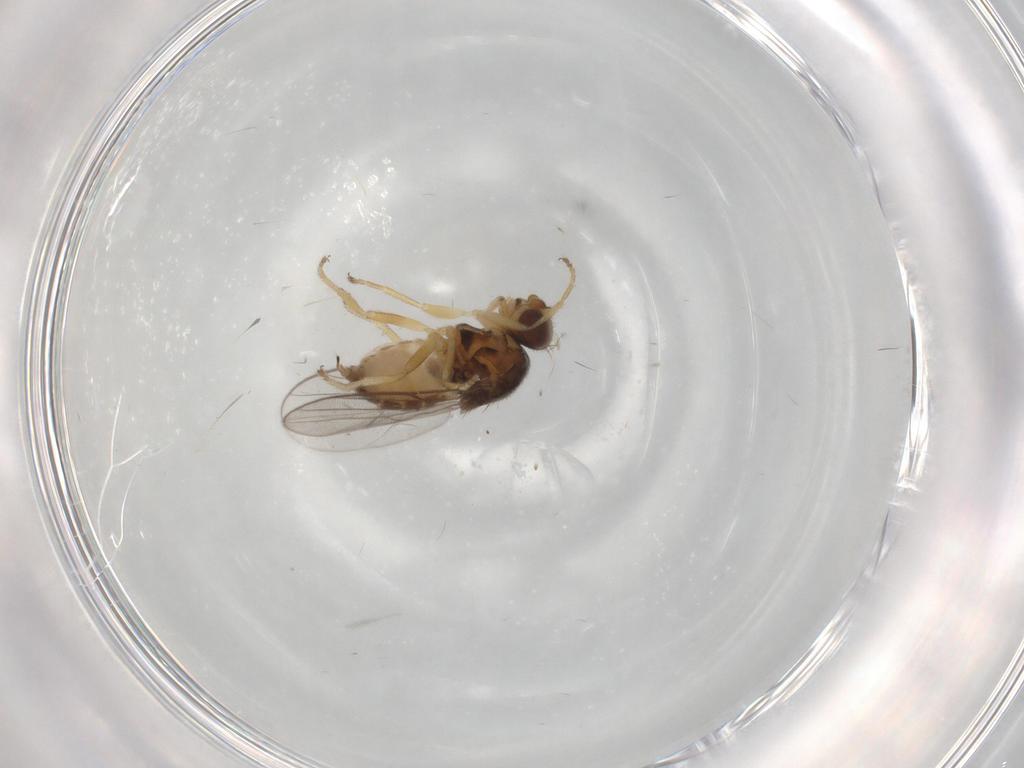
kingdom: Animalia
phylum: Arthropoda
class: Insecta
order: Diptera
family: Chloropidae
